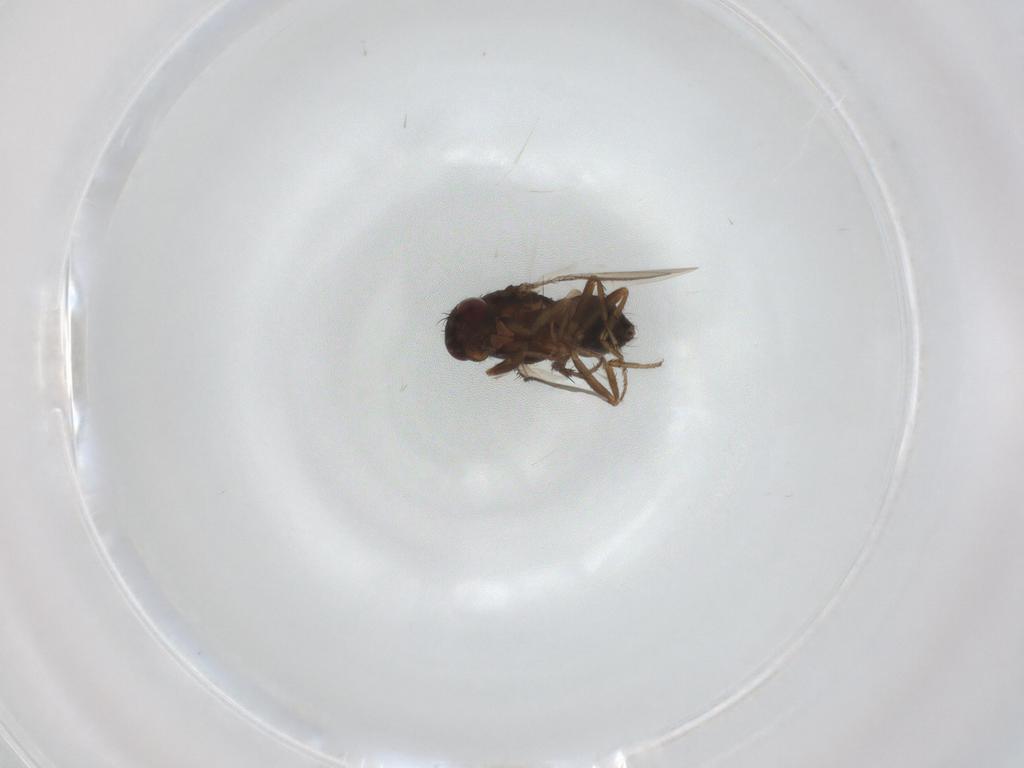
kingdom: Animalia
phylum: Arthropoda
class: Insecta
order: Diptera
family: Sphaeroceridae
